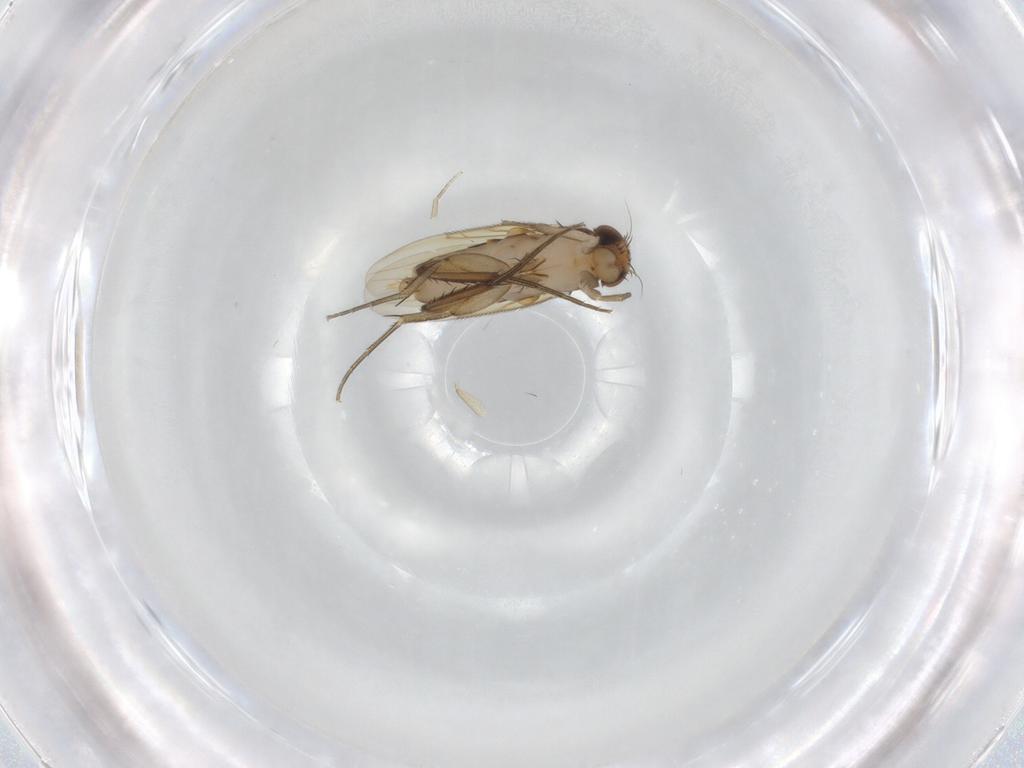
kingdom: Animalia
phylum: Arthropoda
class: Insecta
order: Diptera
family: Phoridae
